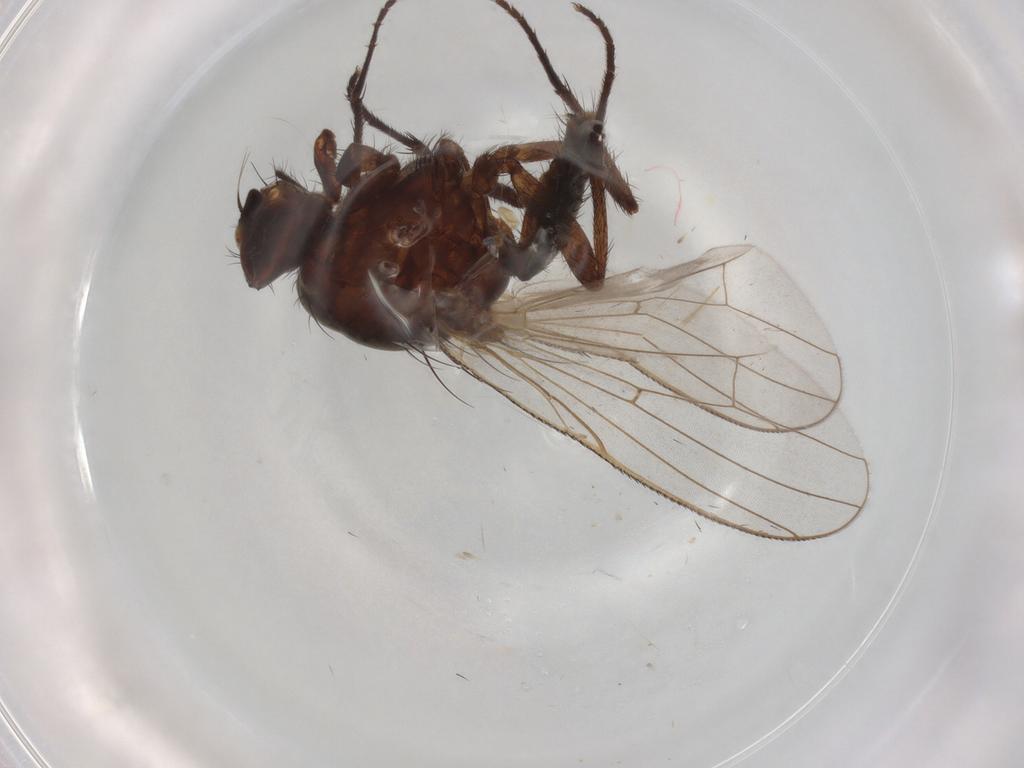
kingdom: Animalia
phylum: Arthropoda
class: Insecta
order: Diptera
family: Anthomyiidae
